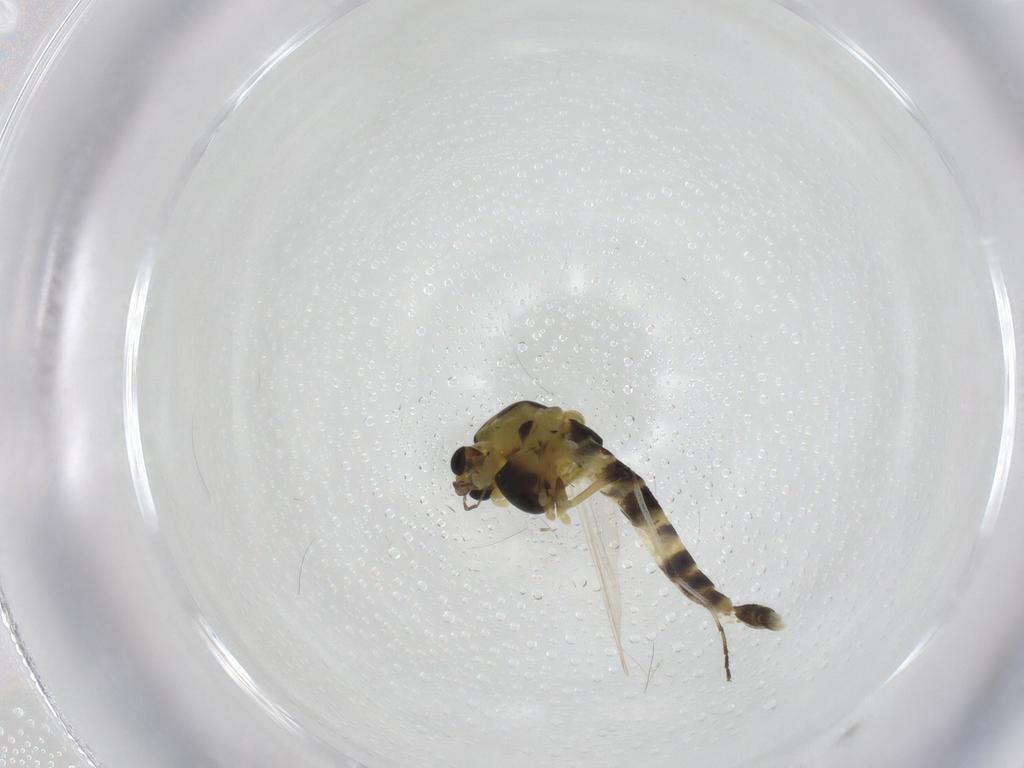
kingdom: Animalia
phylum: Arthropoda
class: Insecta
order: Diptera
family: Chironomidae
